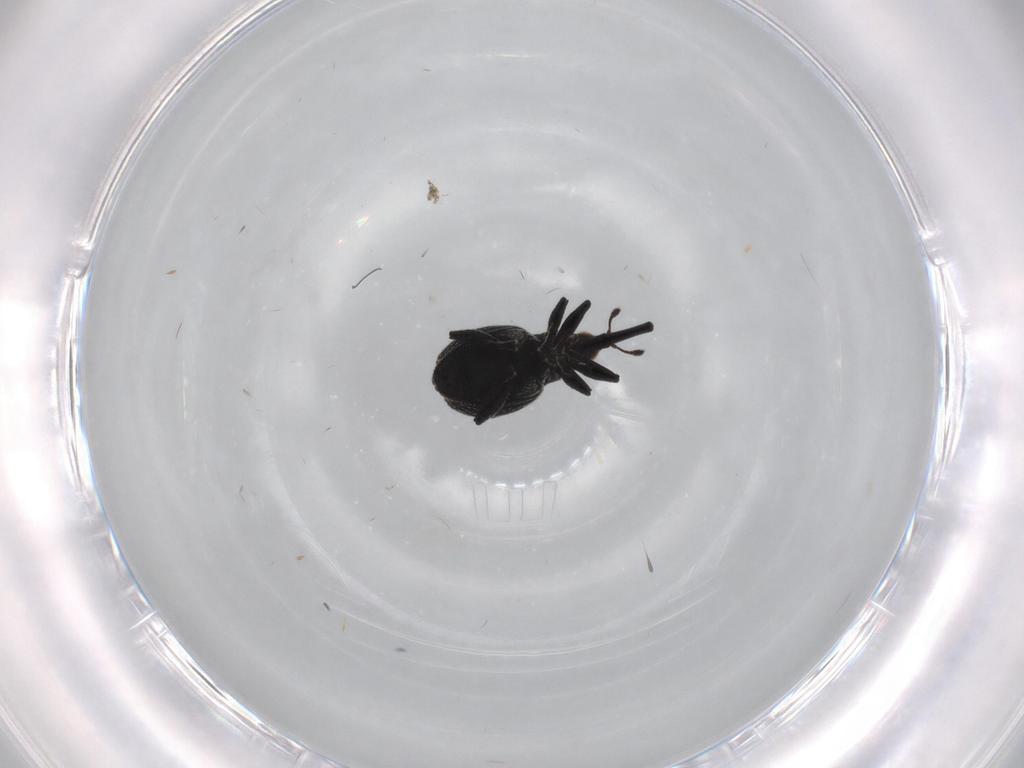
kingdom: Animalia
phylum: Arthropoda
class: Insecta
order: Coleoptera
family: Brentidae
